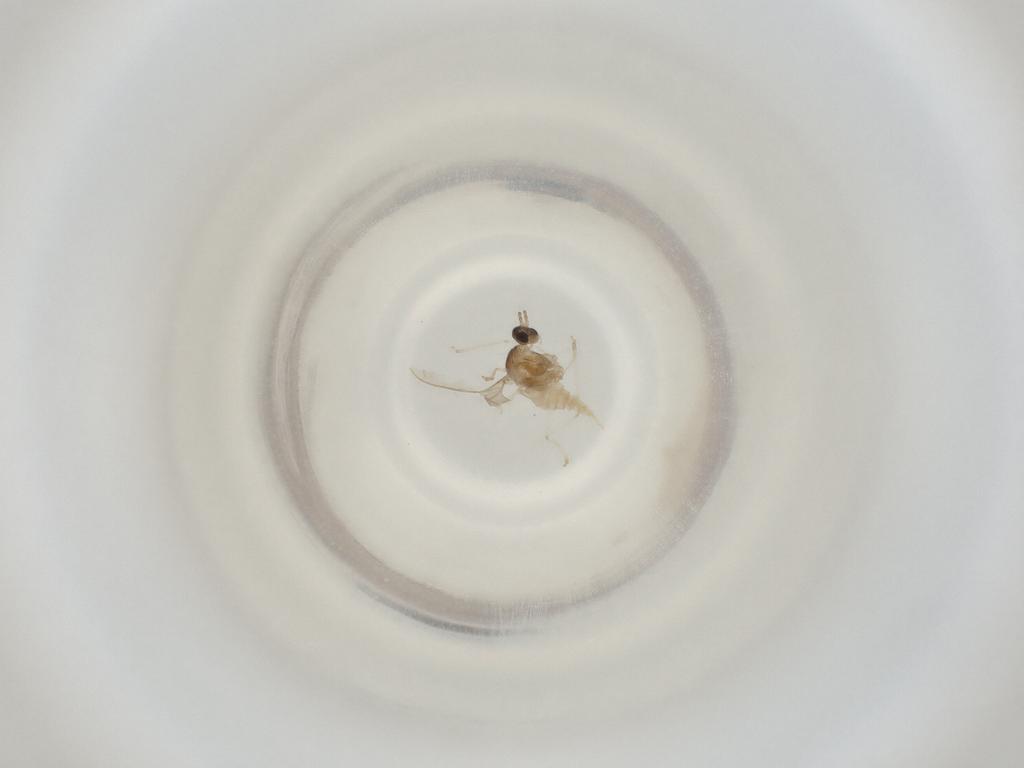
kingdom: Animalia
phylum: Arthropoda
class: Insecta
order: Diptera
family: Cecidomyiidae
